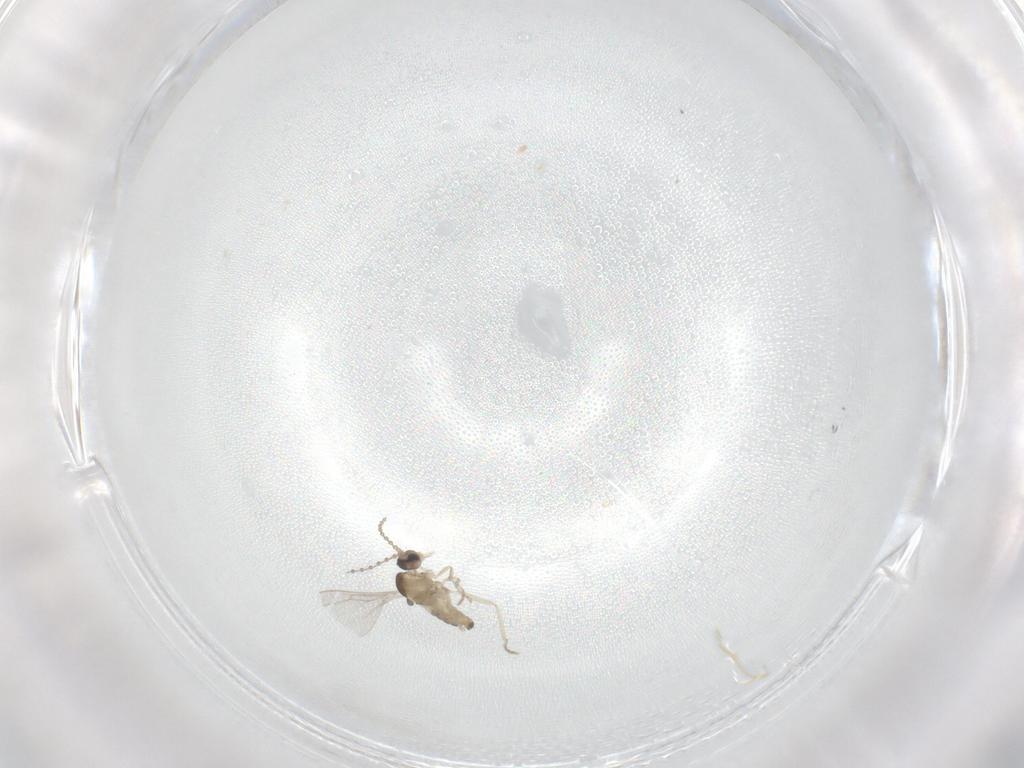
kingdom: Animalia
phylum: Arthropoda
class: Insecta
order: Diptera
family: Cecidomyiidae
